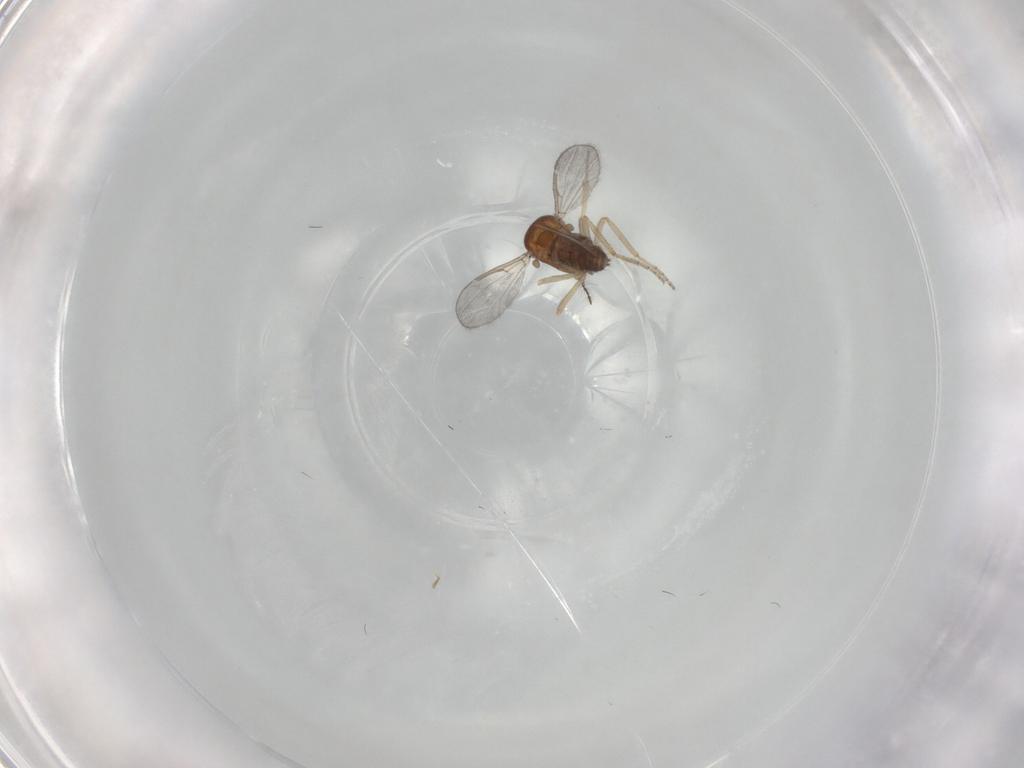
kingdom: Animalia
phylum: Arthropoda
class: Insecta
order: Diptera
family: Ceratopogonidae
